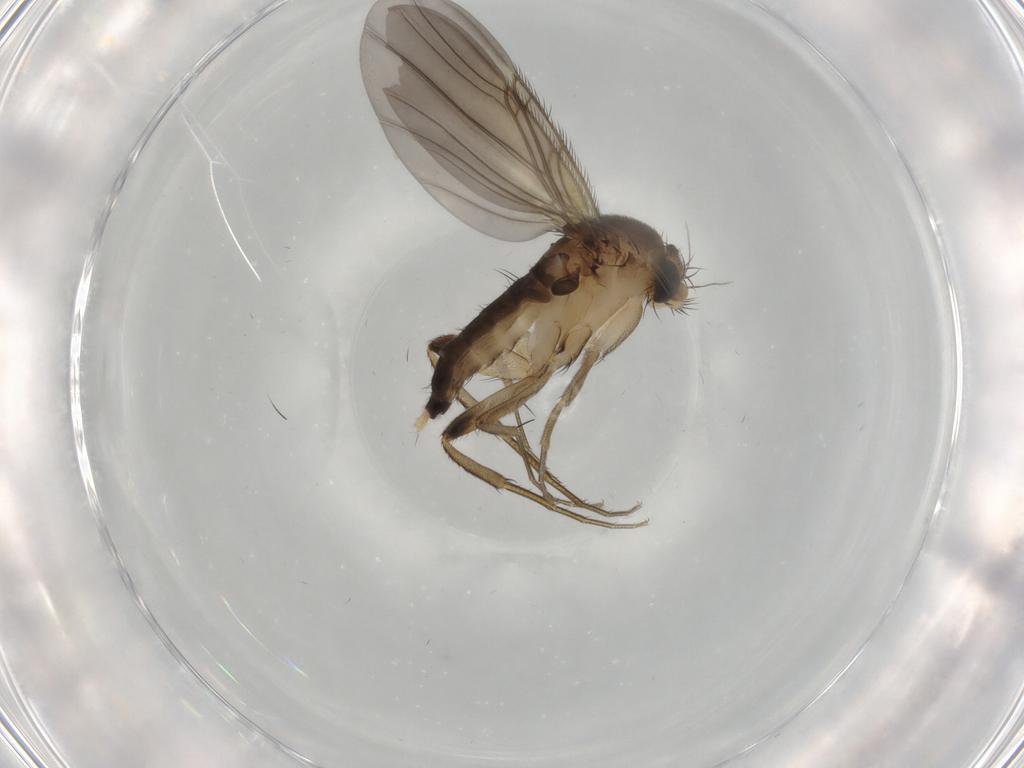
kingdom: Animalia
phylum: Arthropoda
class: Insecta
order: Diptera
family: Phoridae
